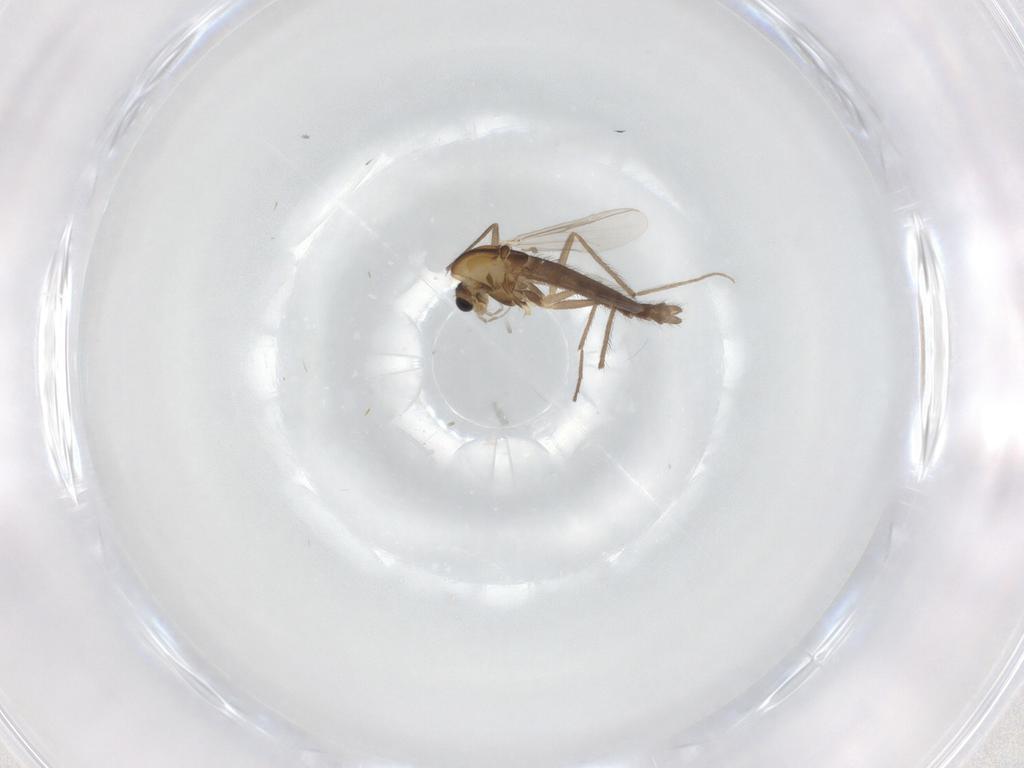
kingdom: Animalia
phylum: Arthropoda
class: Insecta
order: Diptera
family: Chironomidae
